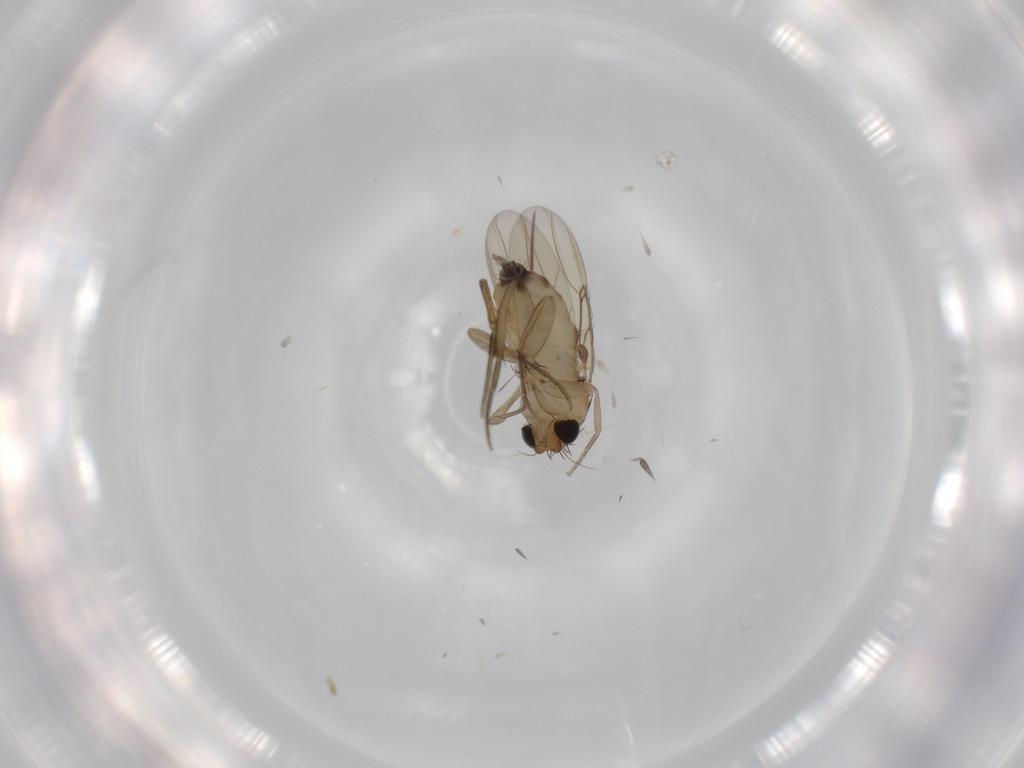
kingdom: Animalia
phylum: Arthropoda
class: Insecta
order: Diptera
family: Phoridae
